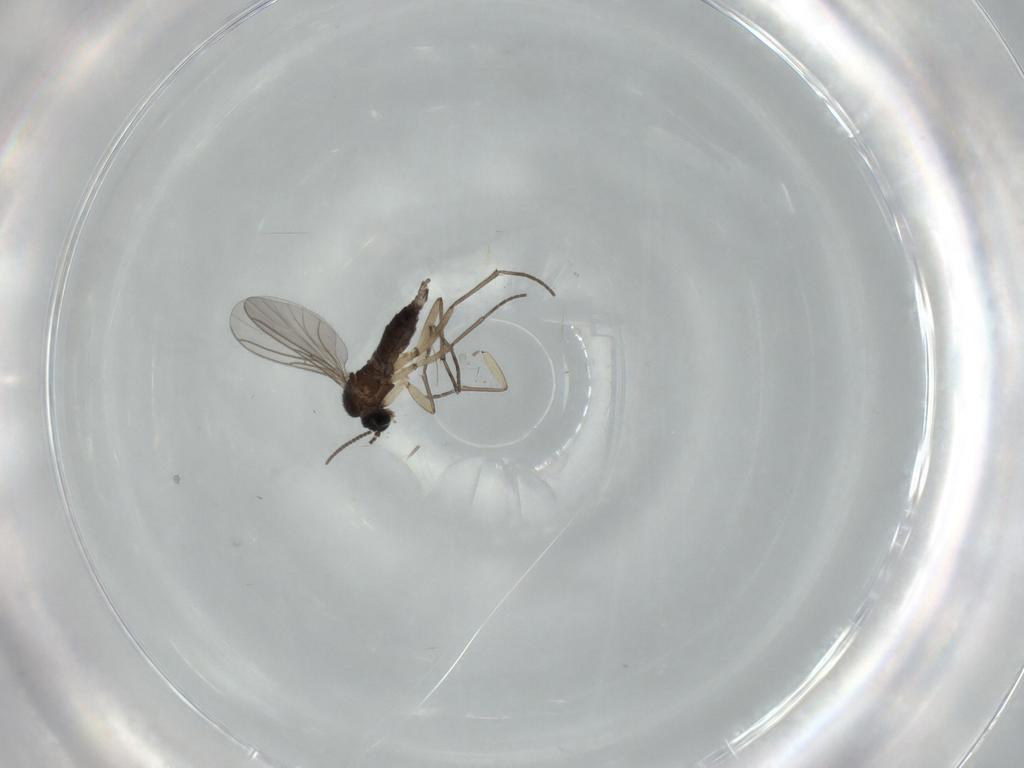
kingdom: Animalia
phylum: Arthropoda
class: Insecta
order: Diptera
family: Sciaridae
